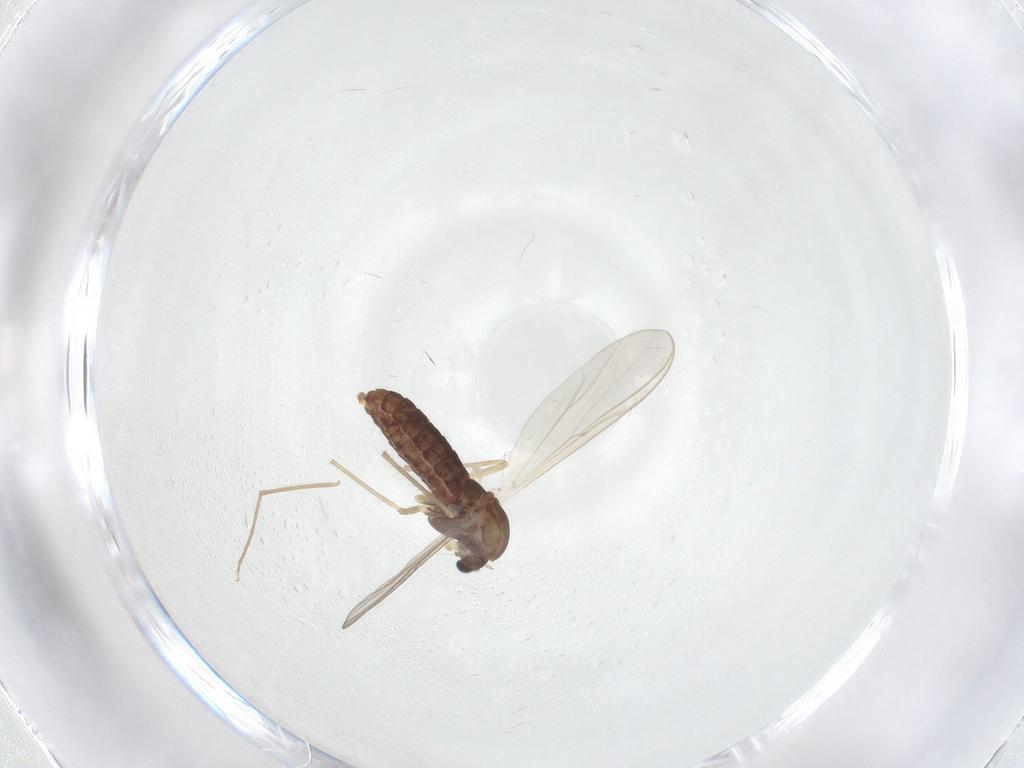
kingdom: Animalia
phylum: Arthropoda
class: Insecta
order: Diptera
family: Chironomidae
